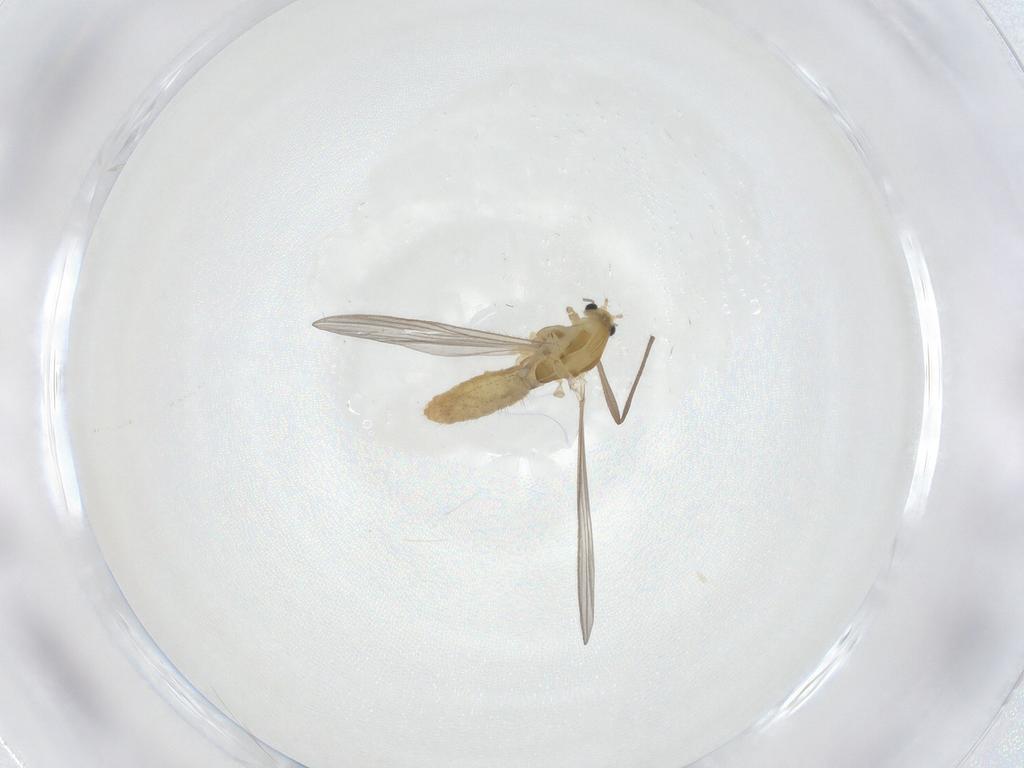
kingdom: Animalia
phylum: Arthropoda
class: Insecta
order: Diptera
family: Chironomidae
